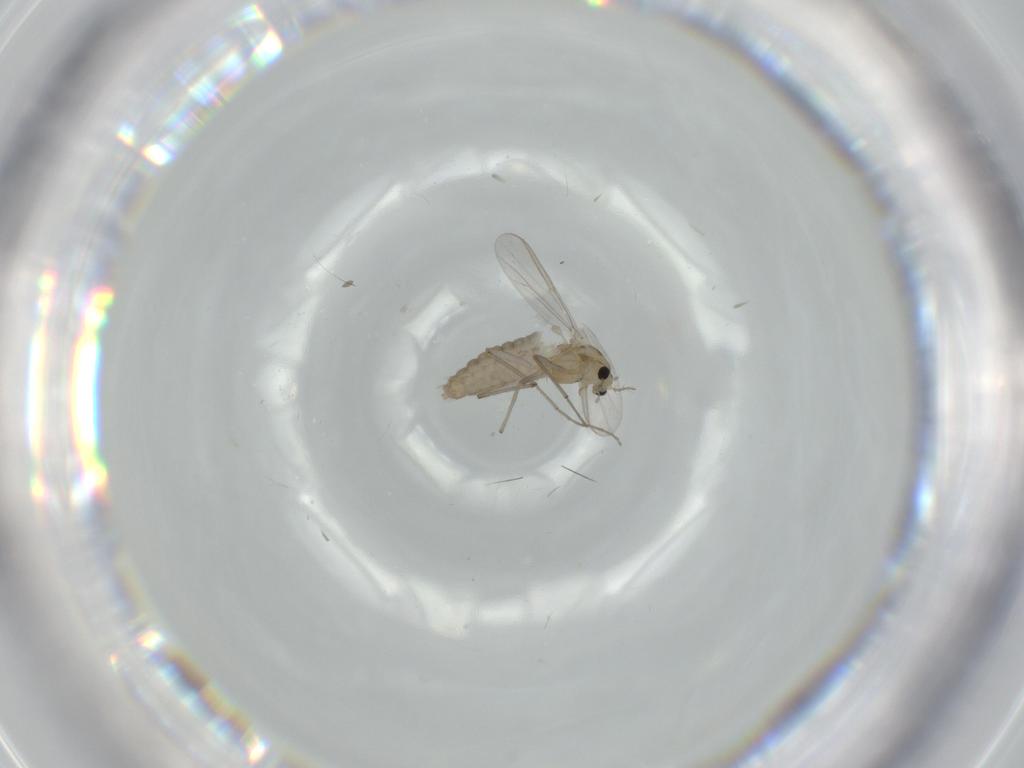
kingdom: Animalia
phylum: Arthropoda
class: Insecta
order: Diptera
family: Chironomidae
